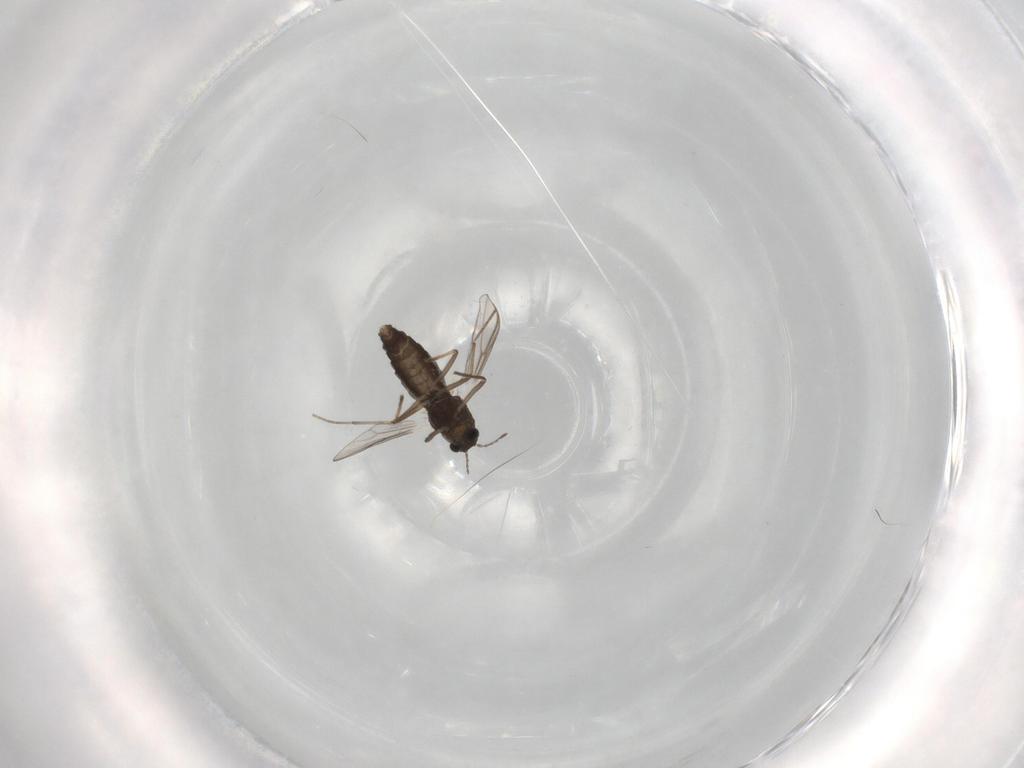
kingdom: Animalia
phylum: Arthropoda
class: Insecta
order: Diptera
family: Chironomidae
